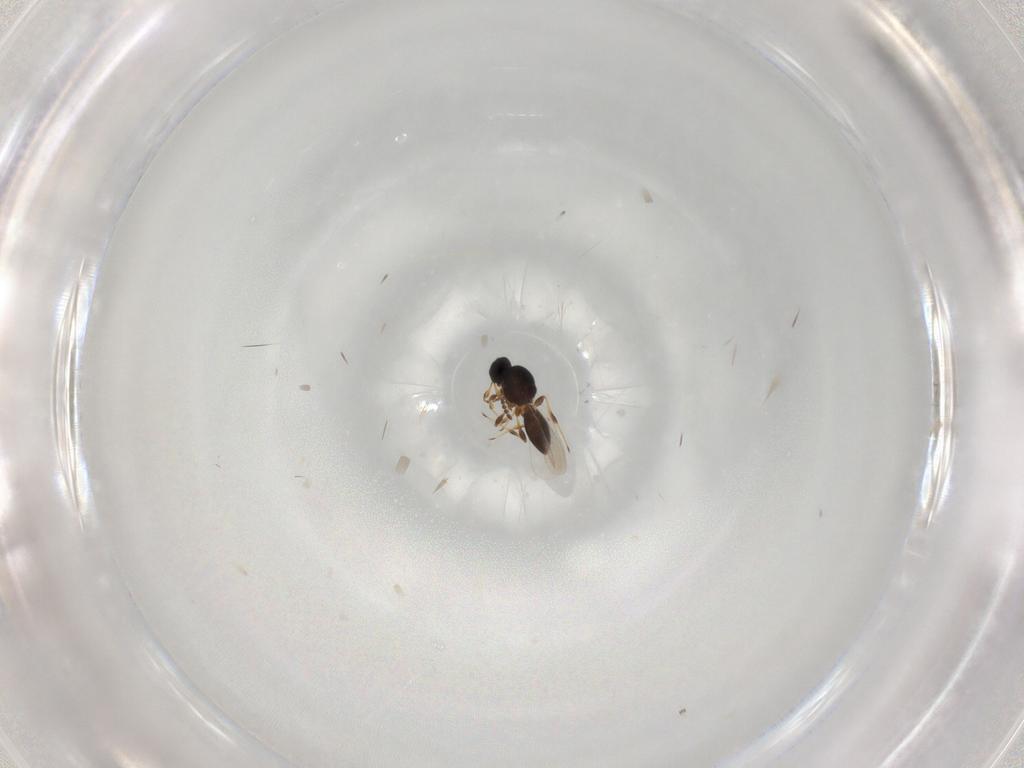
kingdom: Animalia
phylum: Arthropoda
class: Insecta
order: Hymenoptera
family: Platygastridae
